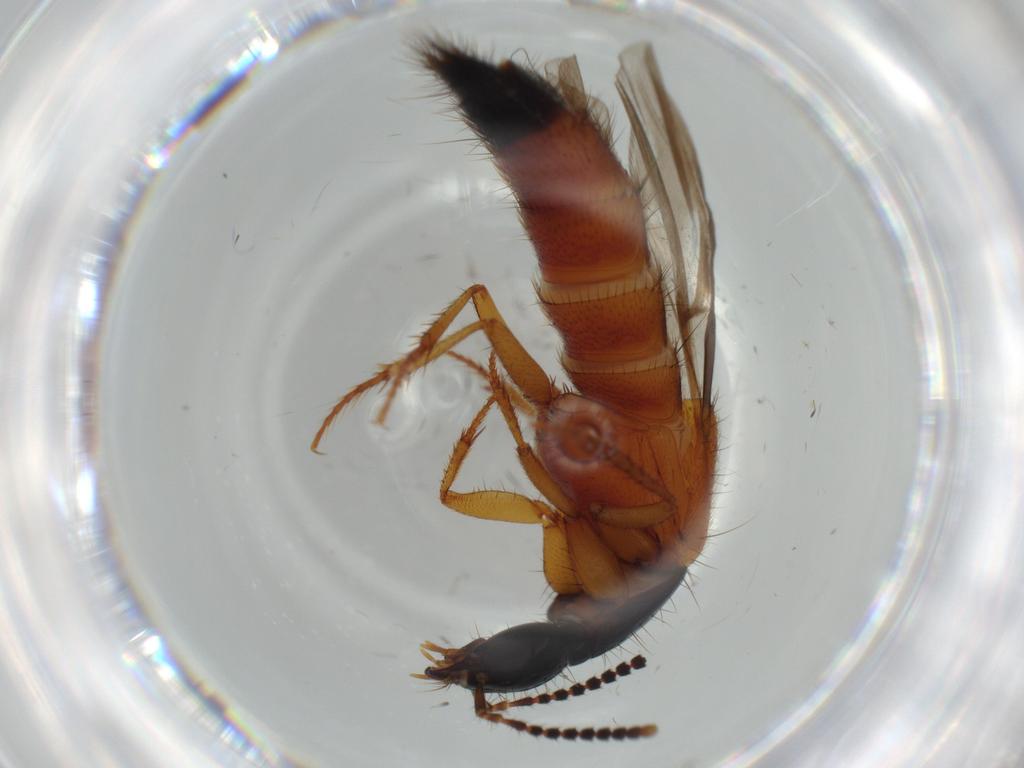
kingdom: Animalia
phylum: Arthropoda
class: Insecta
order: Coleoptera
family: Staphylinidae
